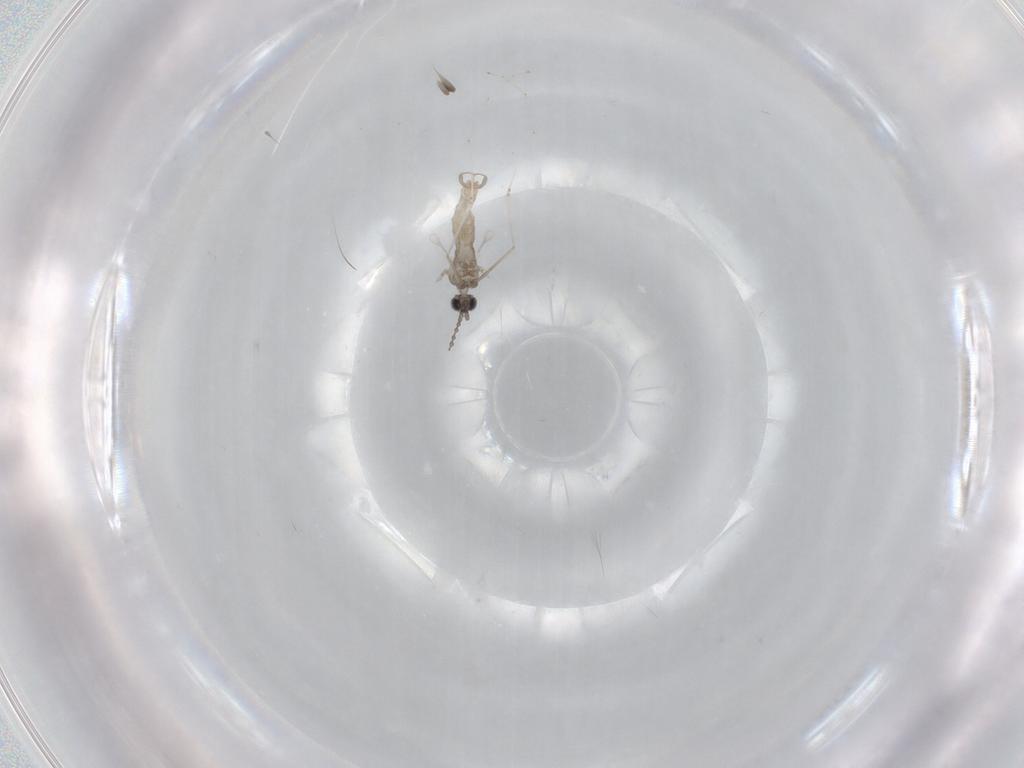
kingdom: Animalia
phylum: Arthropoda
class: Insecta
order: Diptera
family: Cecidomyiidae
